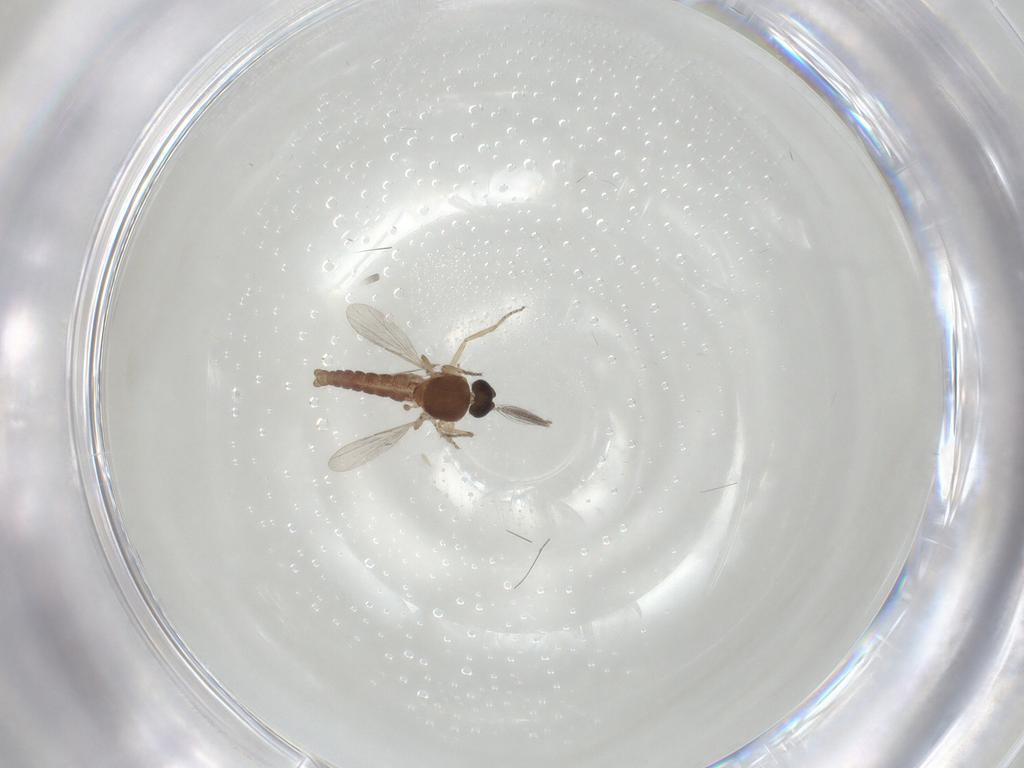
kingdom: Animalia
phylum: Arthropoda
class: Insecta
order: Diptera
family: Ceratopogonidae
